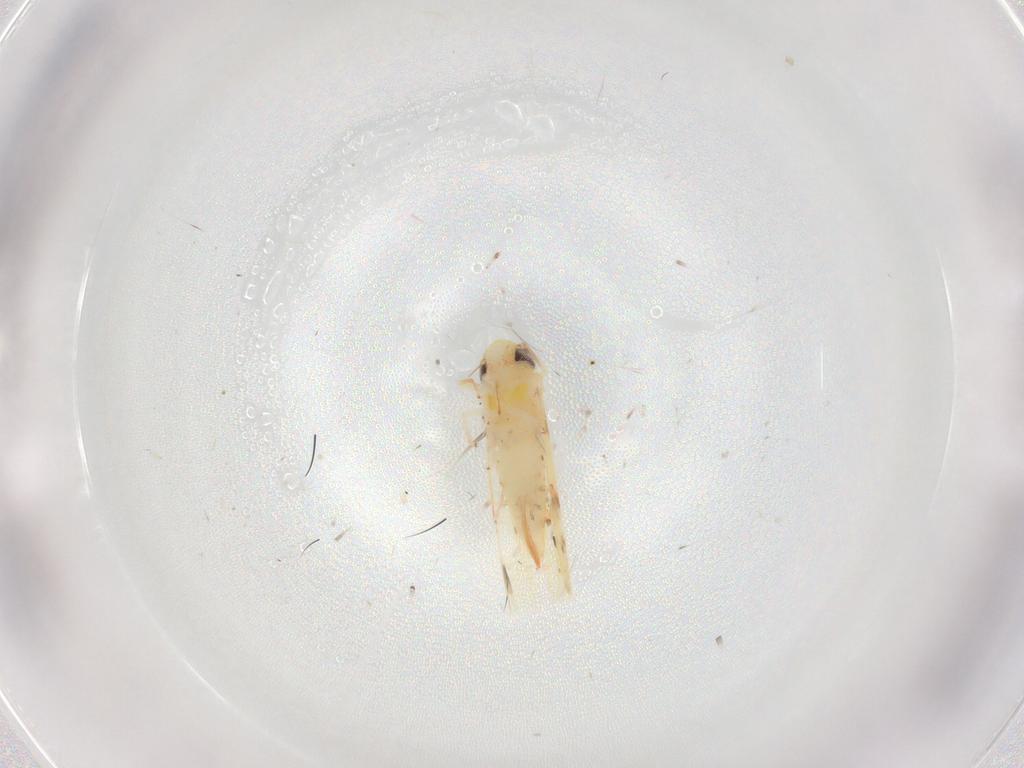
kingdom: Animalia
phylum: Arthropoda
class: Insecta
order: Hemiptera
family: Cicadellidae
